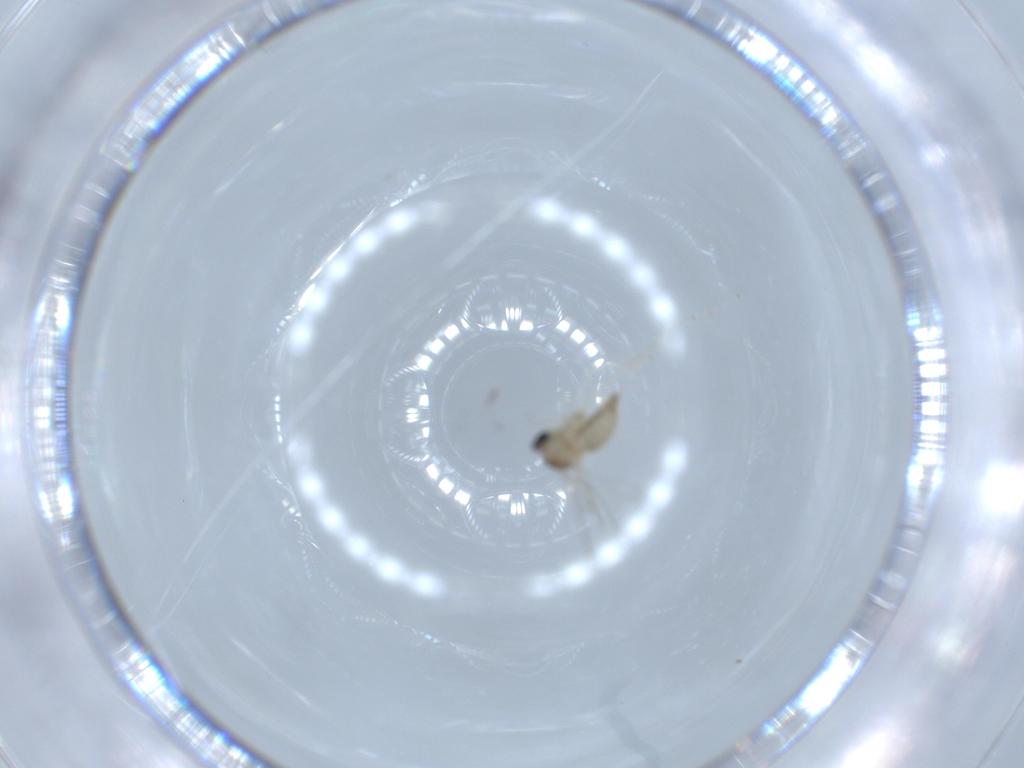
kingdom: Animalia
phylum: Arthropoda
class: Insecta
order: Diptera
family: Cecidomyiidae
